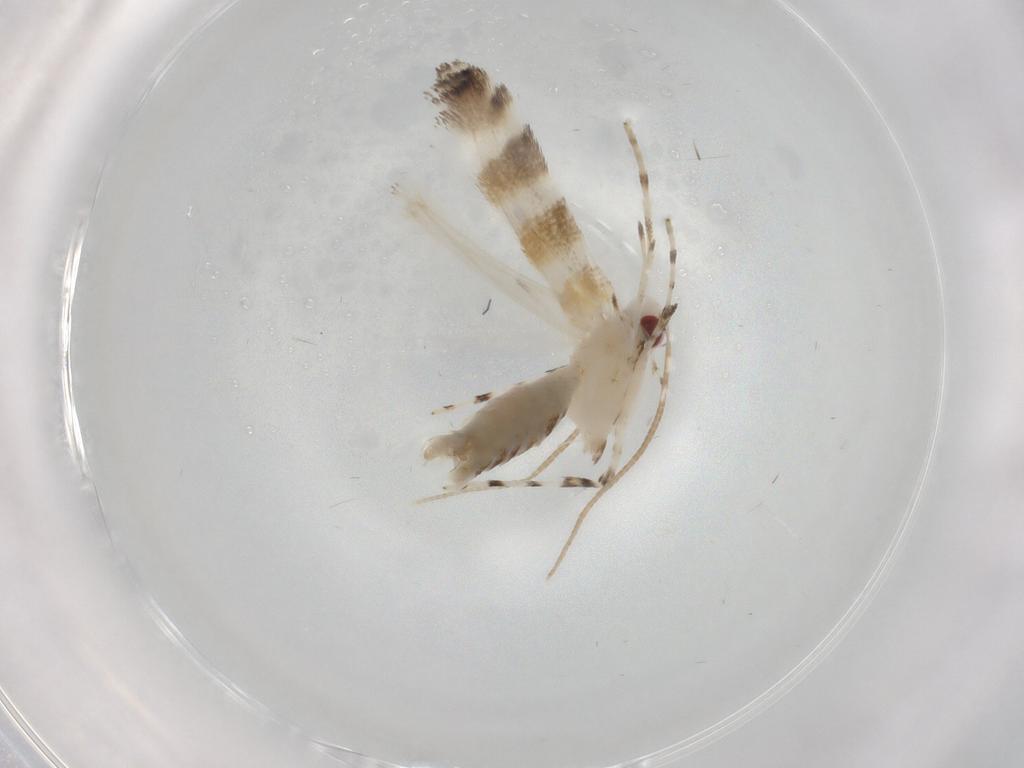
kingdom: Animalia
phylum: Arthropoda
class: Insecta
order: Lepidoptera
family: Gracillariidae
